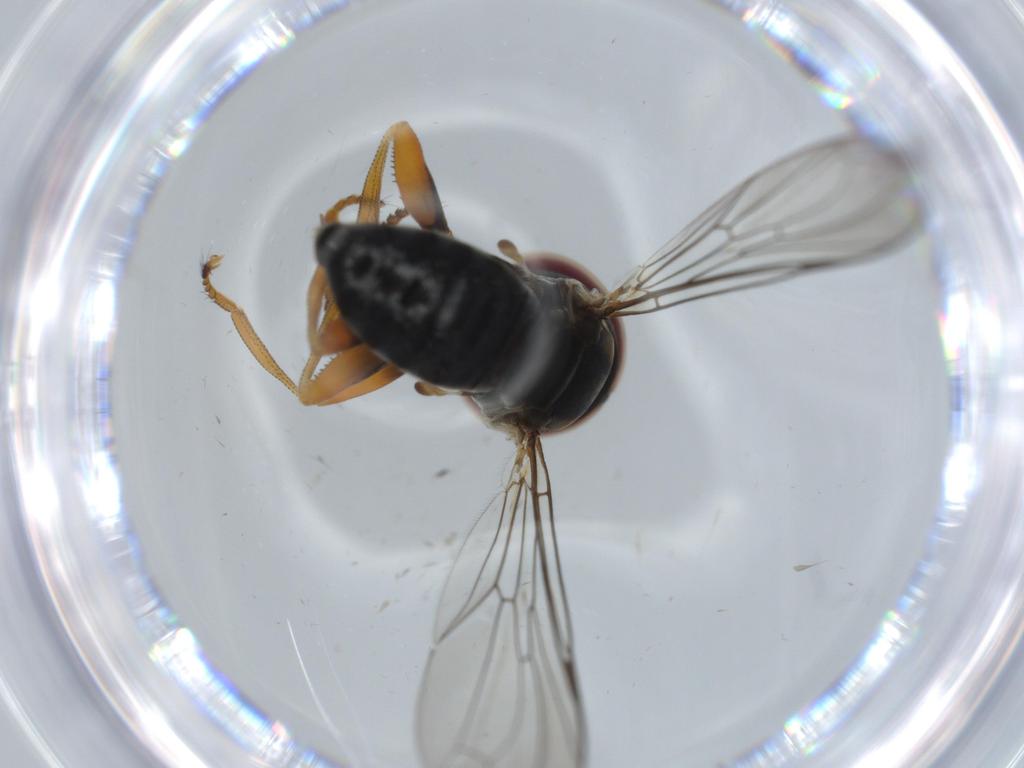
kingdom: Animalia
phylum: Arthropoda
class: Insecta
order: Diptera
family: Pipunculidae
